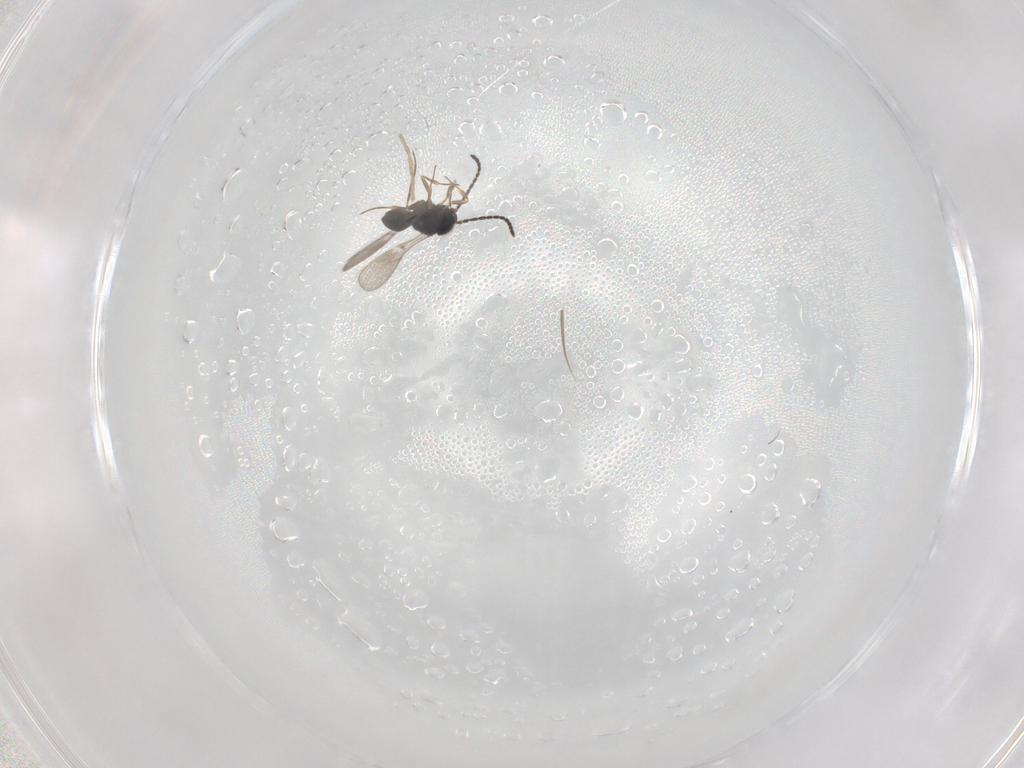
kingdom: Animalia
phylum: Arthropoda
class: Insecta
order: Hymenoptera
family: Scelionidae
